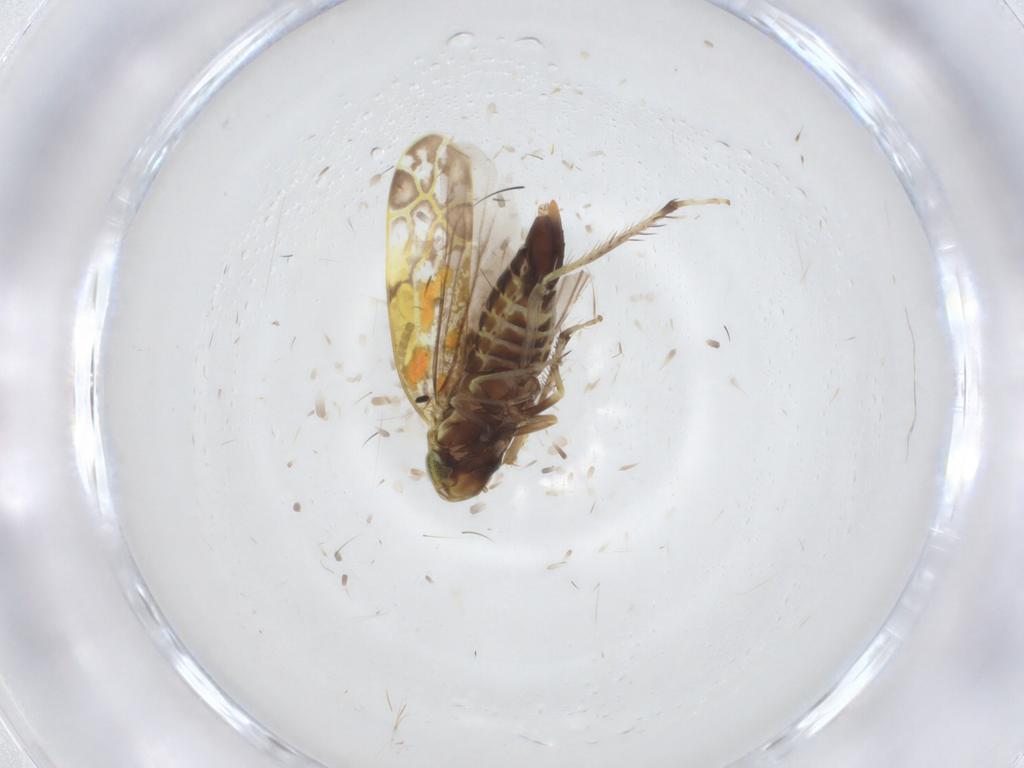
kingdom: Animalia
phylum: Arthropoda
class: Insecta
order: Hemiptera
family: Cicadellidae
